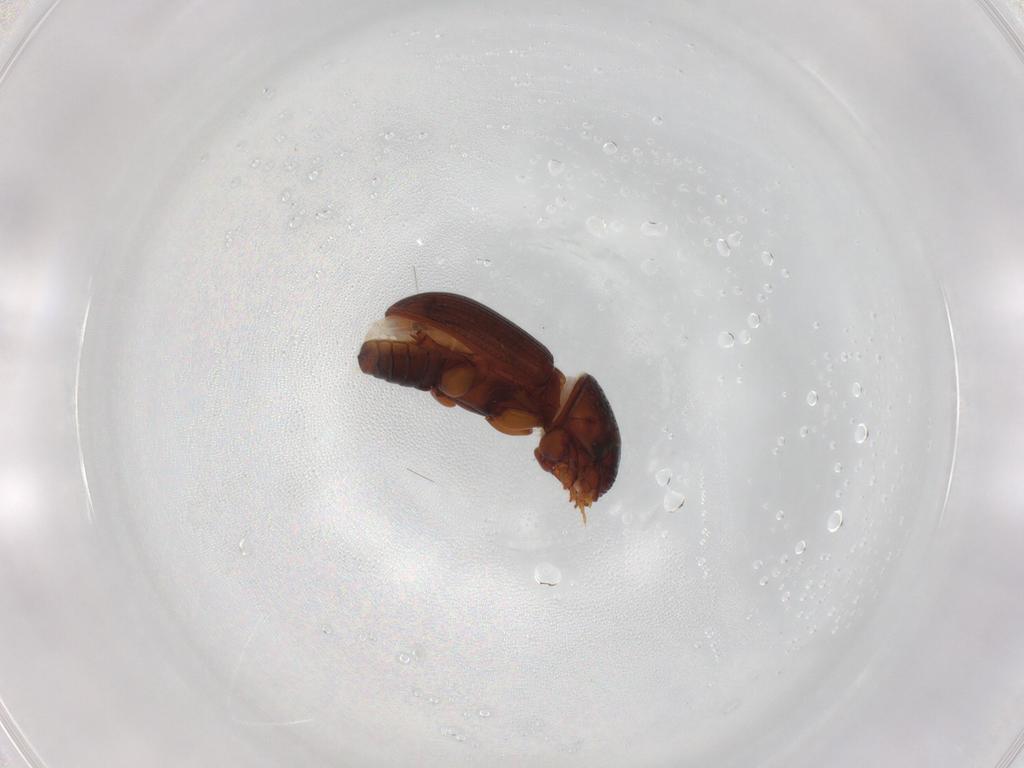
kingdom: Animalia
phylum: Arthropoda
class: Insecta
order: Coleoptera
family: Scarabaeidae
